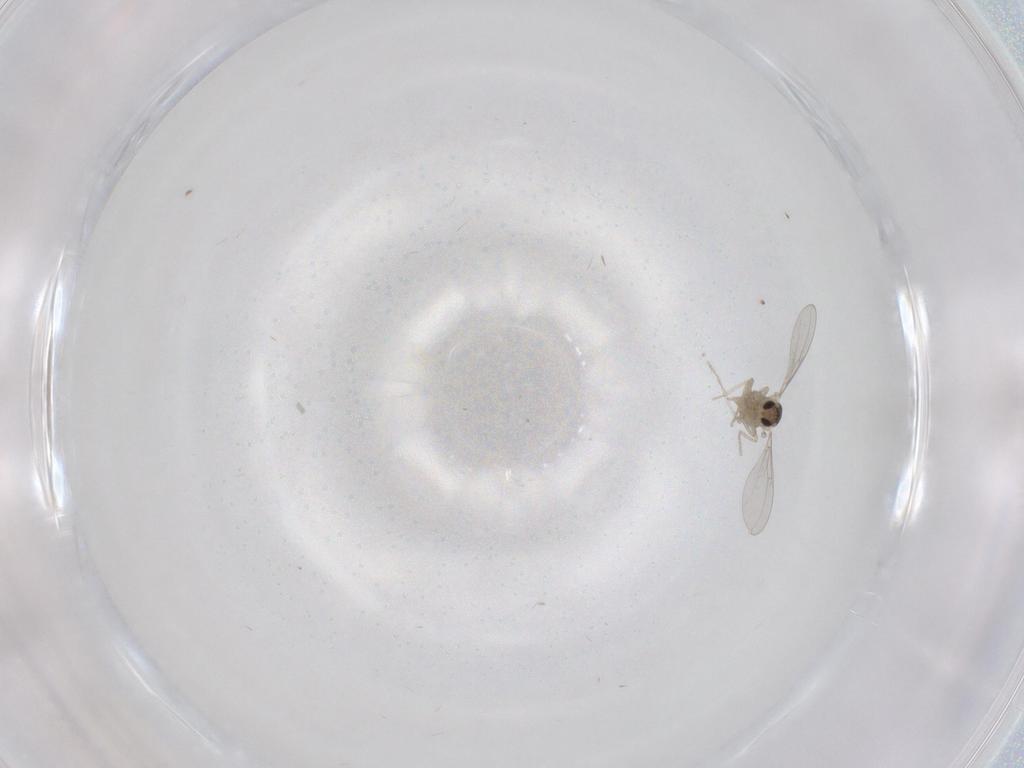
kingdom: Animalia
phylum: Arthropoda
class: Insecta
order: Diptera
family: Cecidomyiidae
